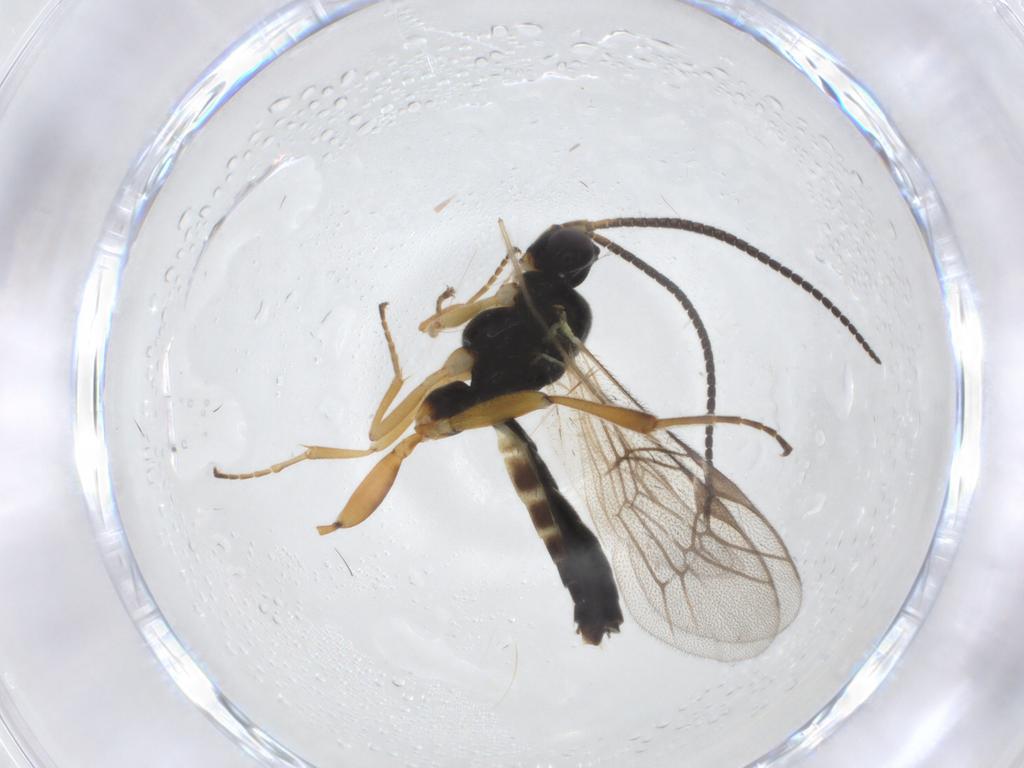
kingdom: Animalia
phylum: Arthropoda
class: Insecta
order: Hymenoptera
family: Ichneumonidae
